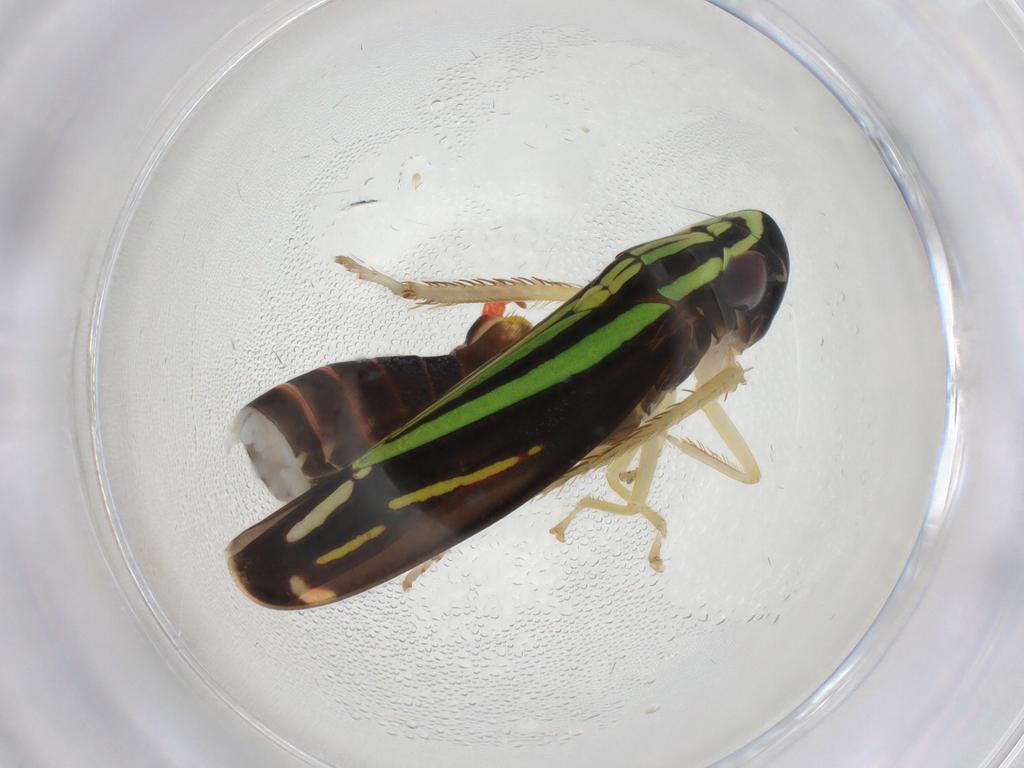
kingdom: Animalia
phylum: Arthropoda
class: Insecta
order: Hemiptera
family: Cicadellidae
